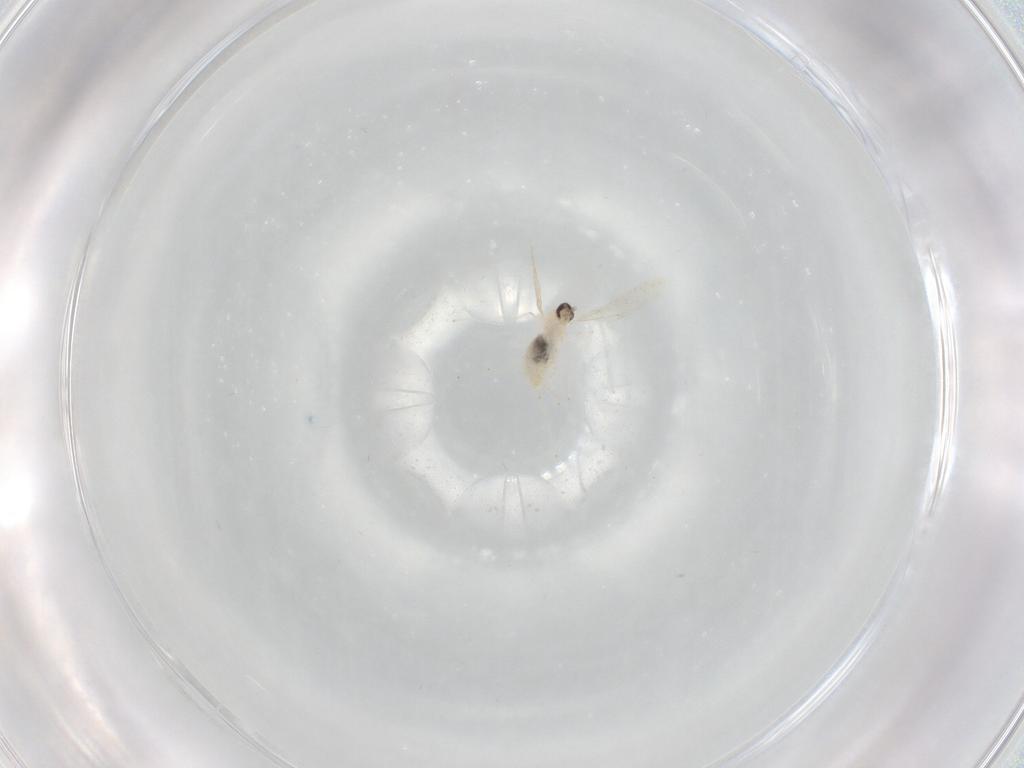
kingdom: Animalia
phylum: Arthropoda
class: Insecta
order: Diptera
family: Cecidomyiidae
